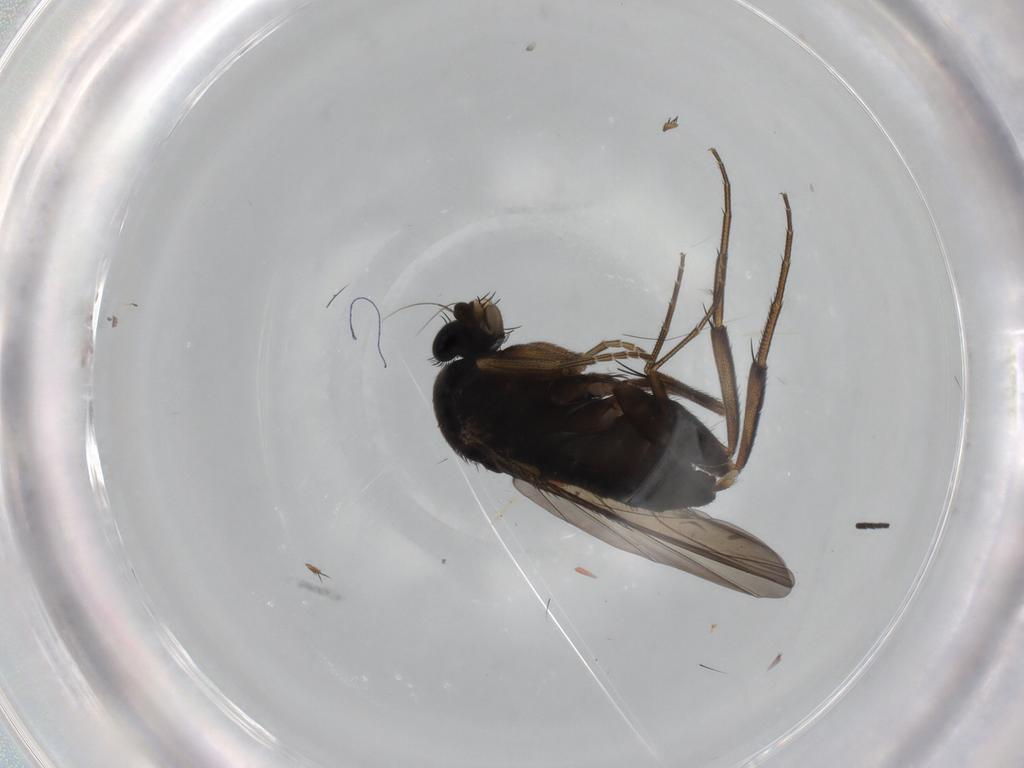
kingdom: Animalia
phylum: Arthropoda
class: Insecta
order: Diptera
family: Phoridae
